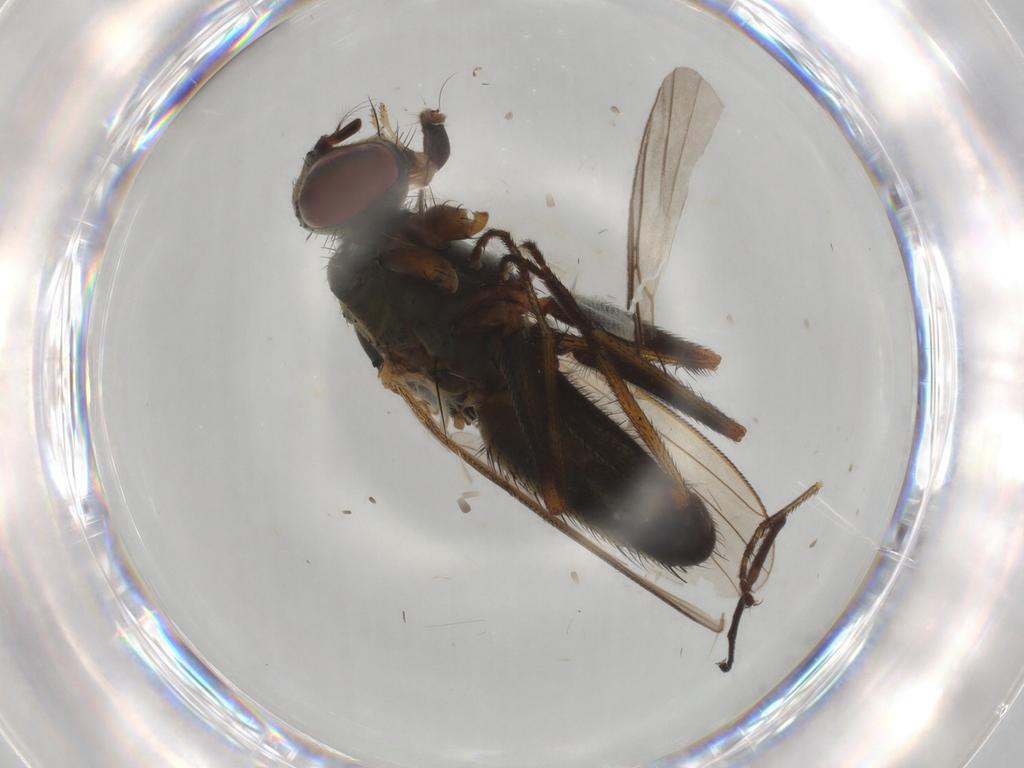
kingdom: Animalia
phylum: Arthropoda
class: Insecta
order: Diptera
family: Muscidae
